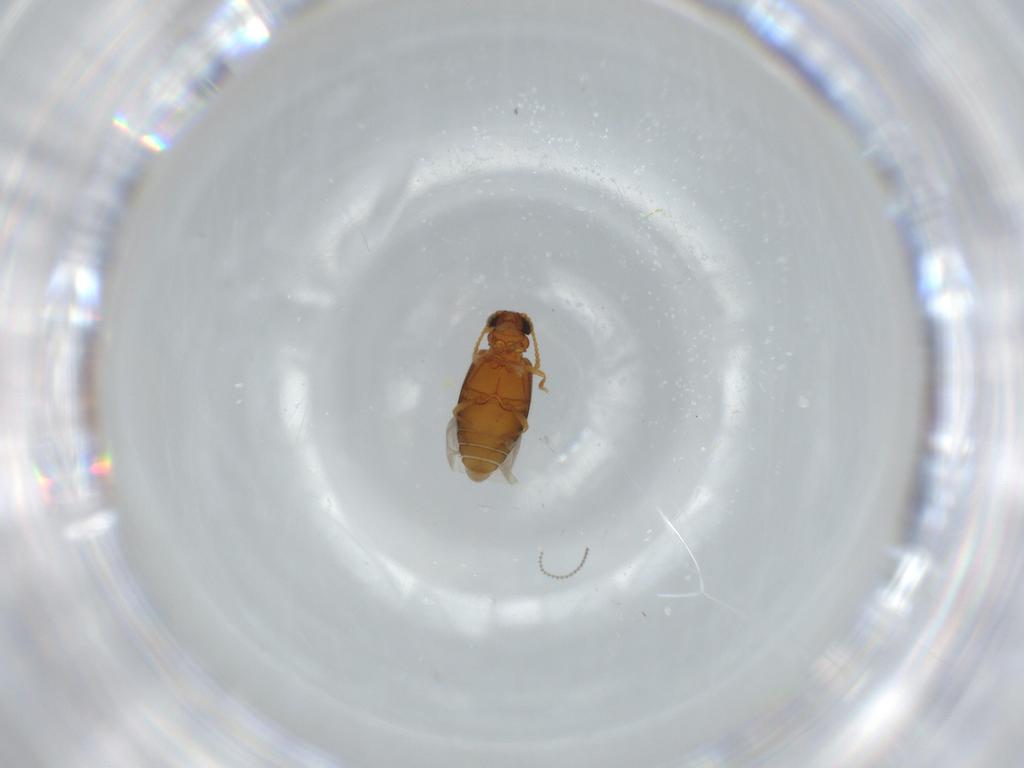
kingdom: Animalia
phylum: Arthropoda
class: Insecta
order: Coleoptera
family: Aderidae
